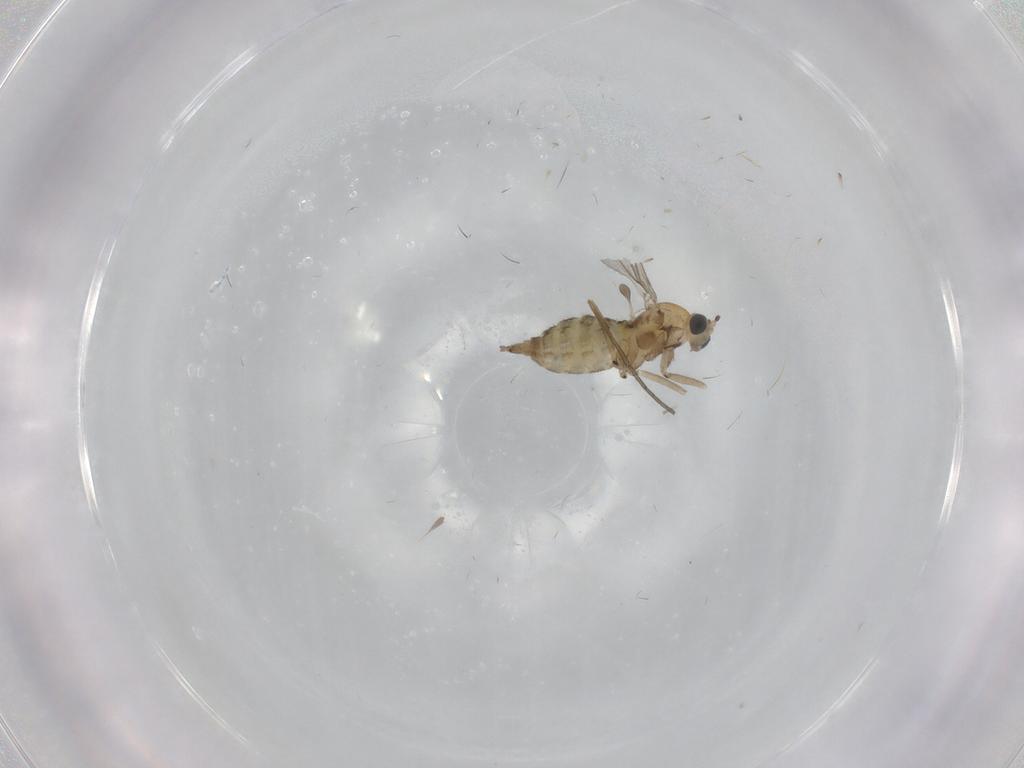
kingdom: Animalia
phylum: Arthropoda
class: Insecta
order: Diptera
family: Sciaridae
